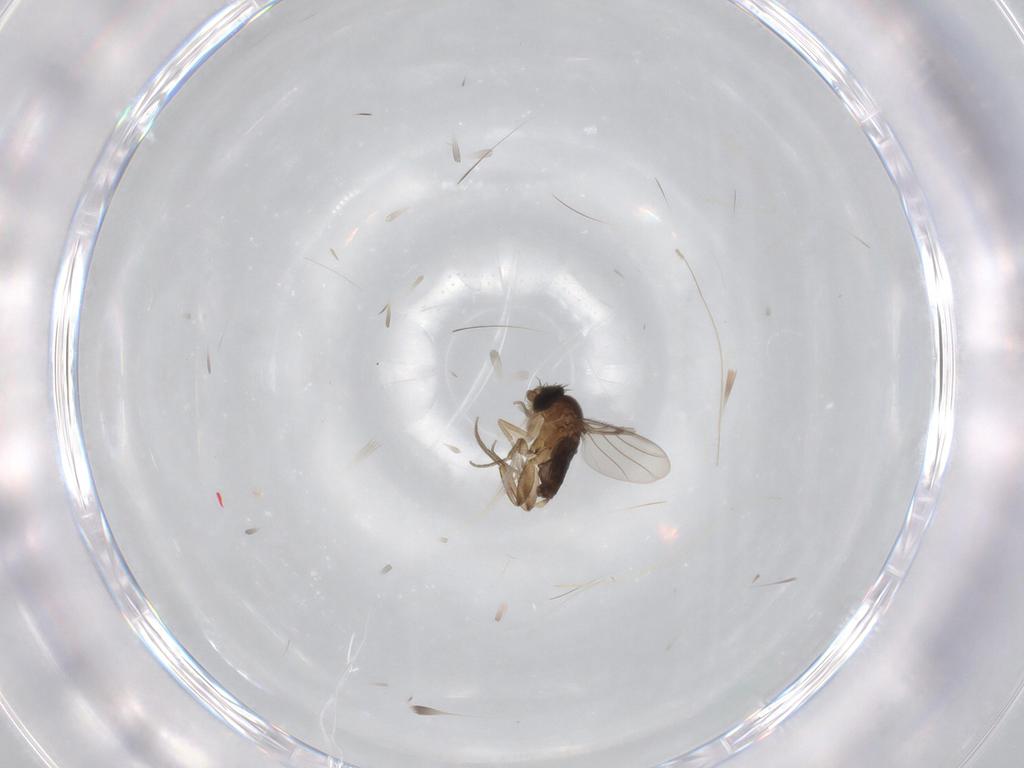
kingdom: Animalia
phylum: Arthropoda
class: Insecta
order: Diptera
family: Phoridae
